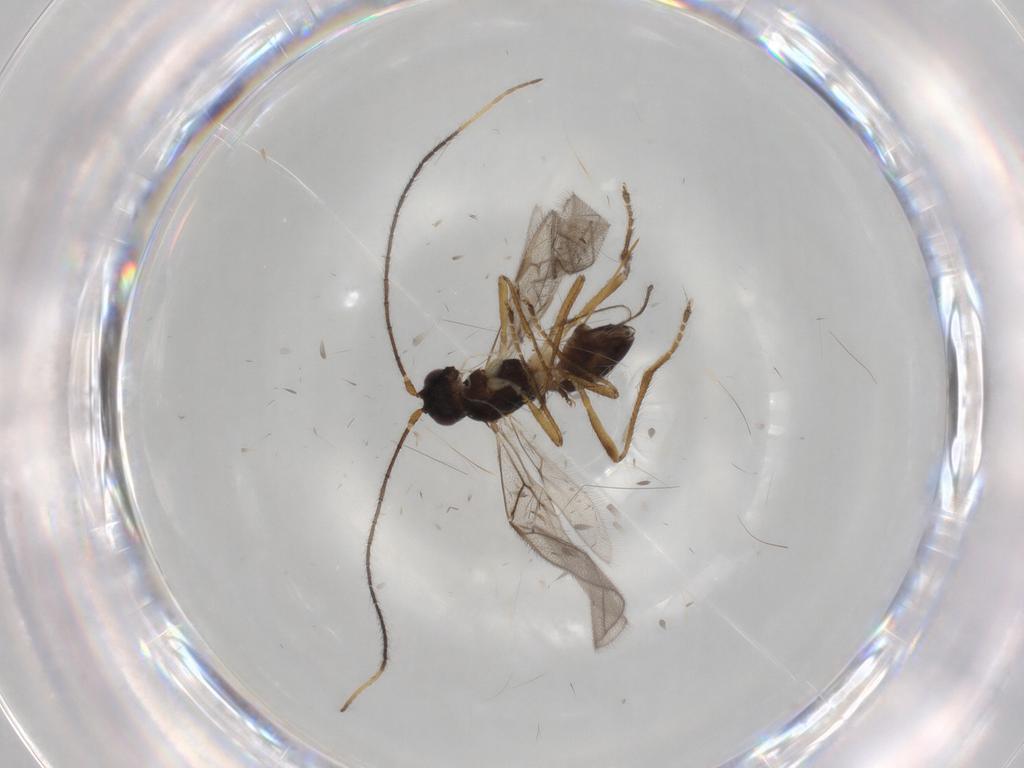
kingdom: Animalia
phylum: Arthropoda
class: Insecta
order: Hymenoptera
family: Braconidae
